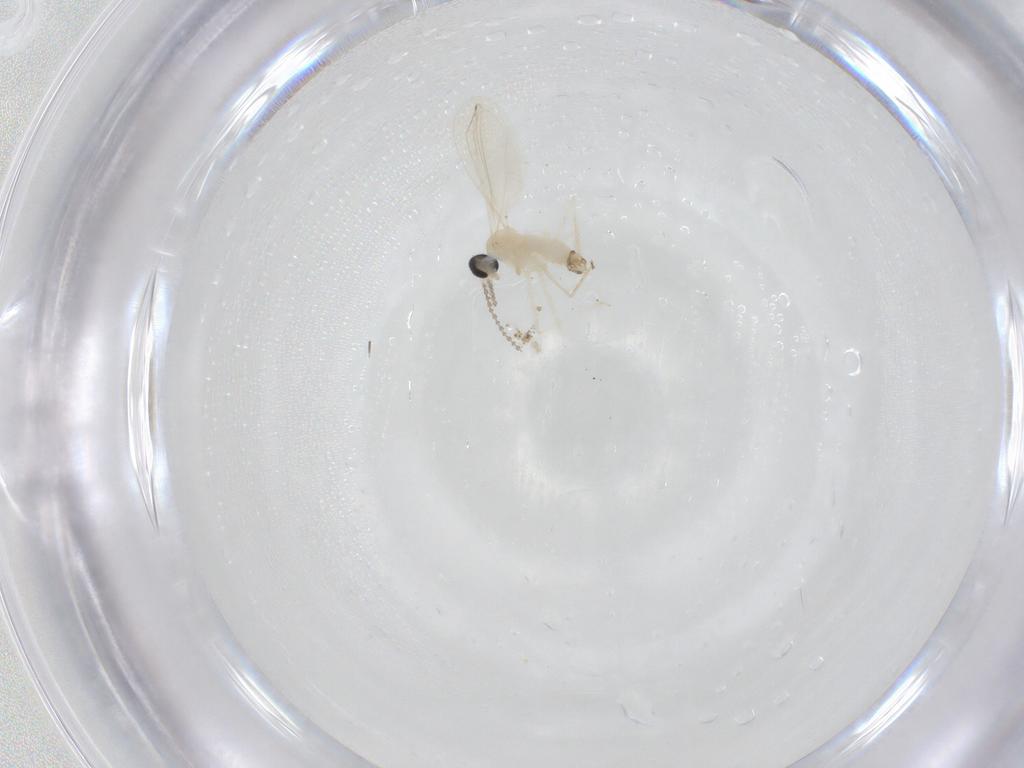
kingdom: Animalia
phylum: Arthropoda
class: Insecta
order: Diptera
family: Cecidomyiidae
